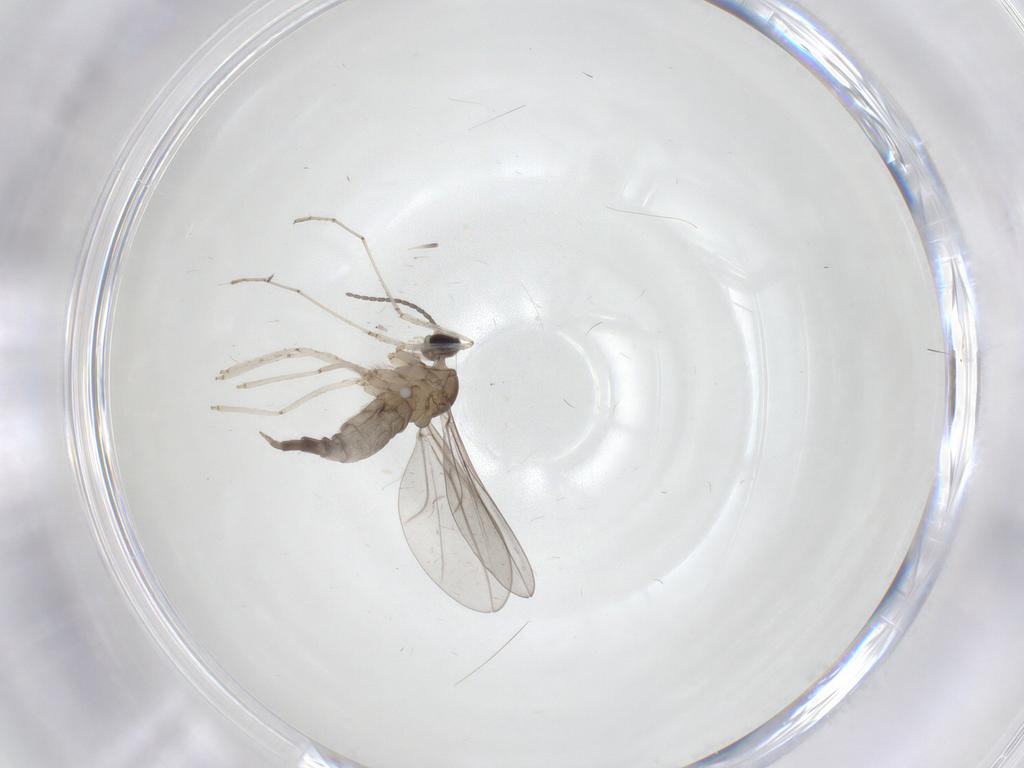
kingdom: Animalia
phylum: Arthropoda
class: Insecta
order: Diptera
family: Cecidomyiidae
